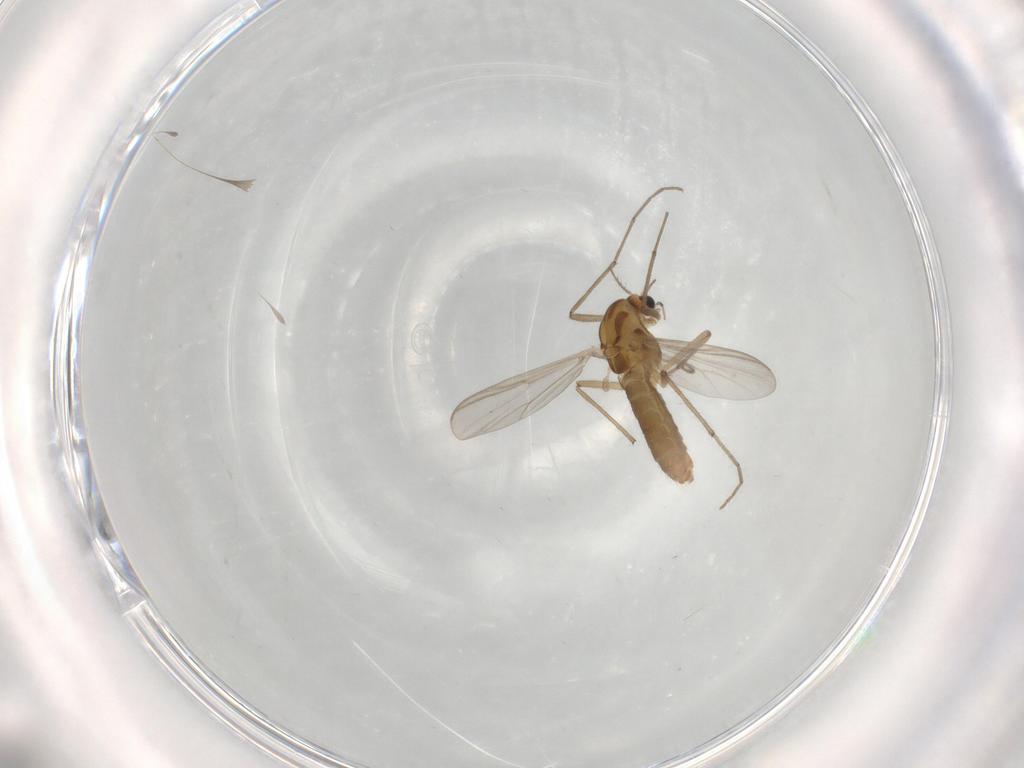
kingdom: Animalia
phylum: Arthropoda
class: Insecta
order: Diptera
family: Chironomidae
